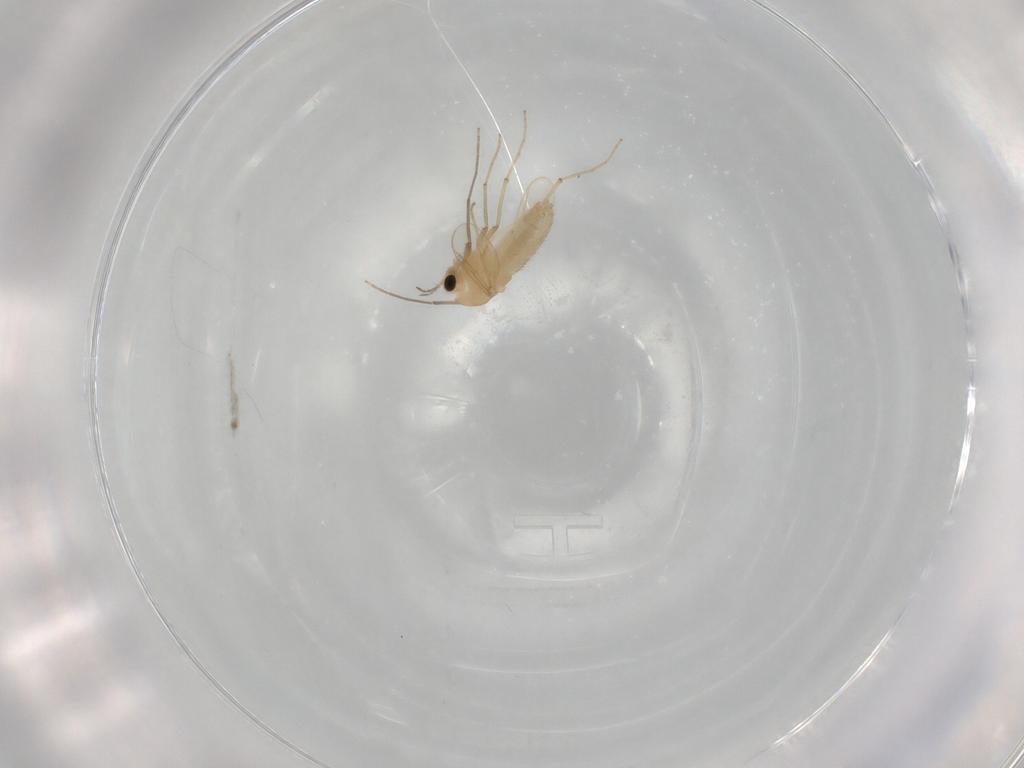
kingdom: Animalia
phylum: Arthropoda
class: Insecta
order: Diptera
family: Chironomidae
